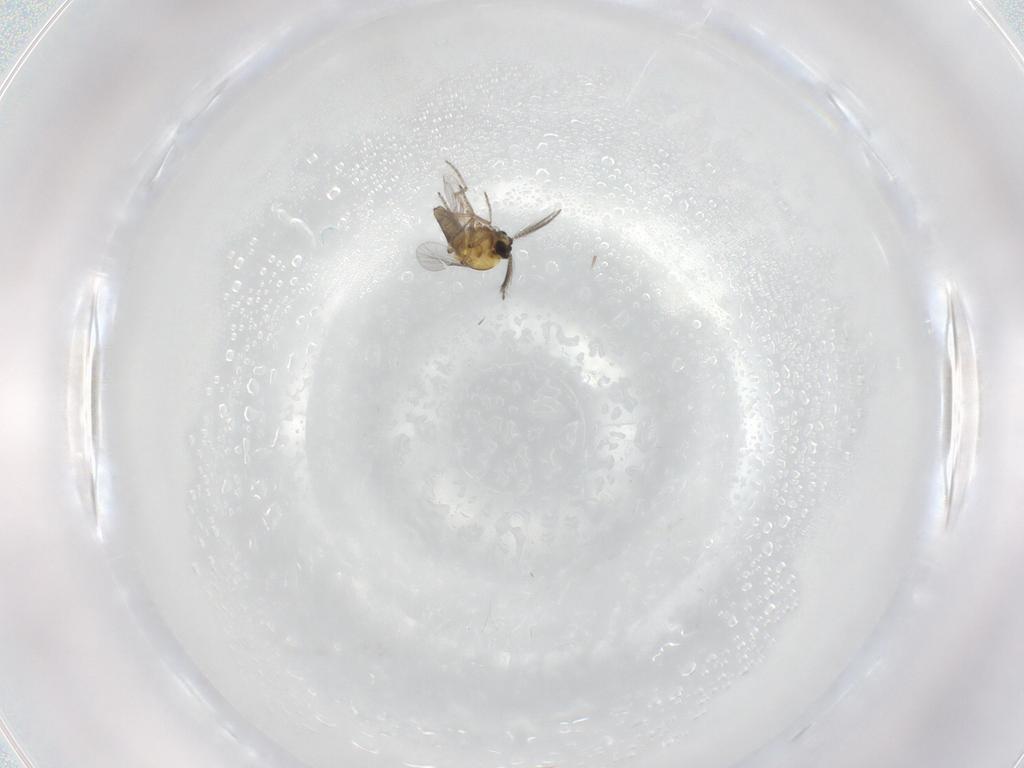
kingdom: Animalia
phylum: Arthropoda
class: Insecta
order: Diptera
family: Ceratopogonidae
